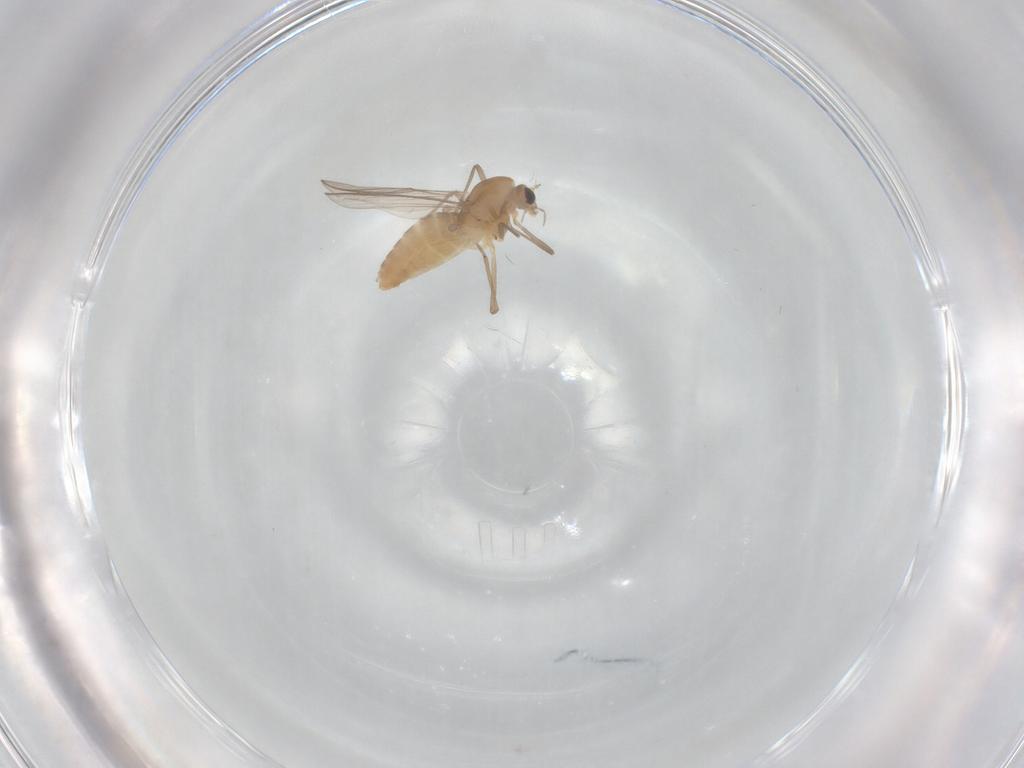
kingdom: Animalia
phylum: Arthropoda
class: Insecta
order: Diptera
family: Chironomidae
